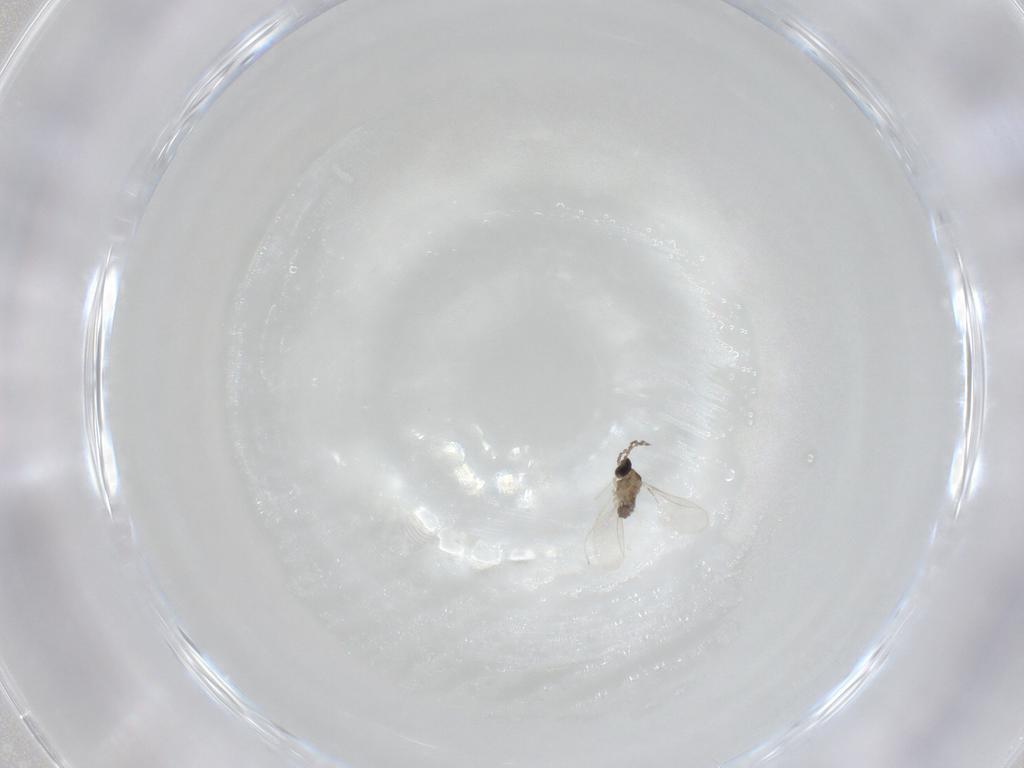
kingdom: Animalia
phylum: Arthropoda
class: Insecta
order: Diptera
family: Cecidomyiidae
